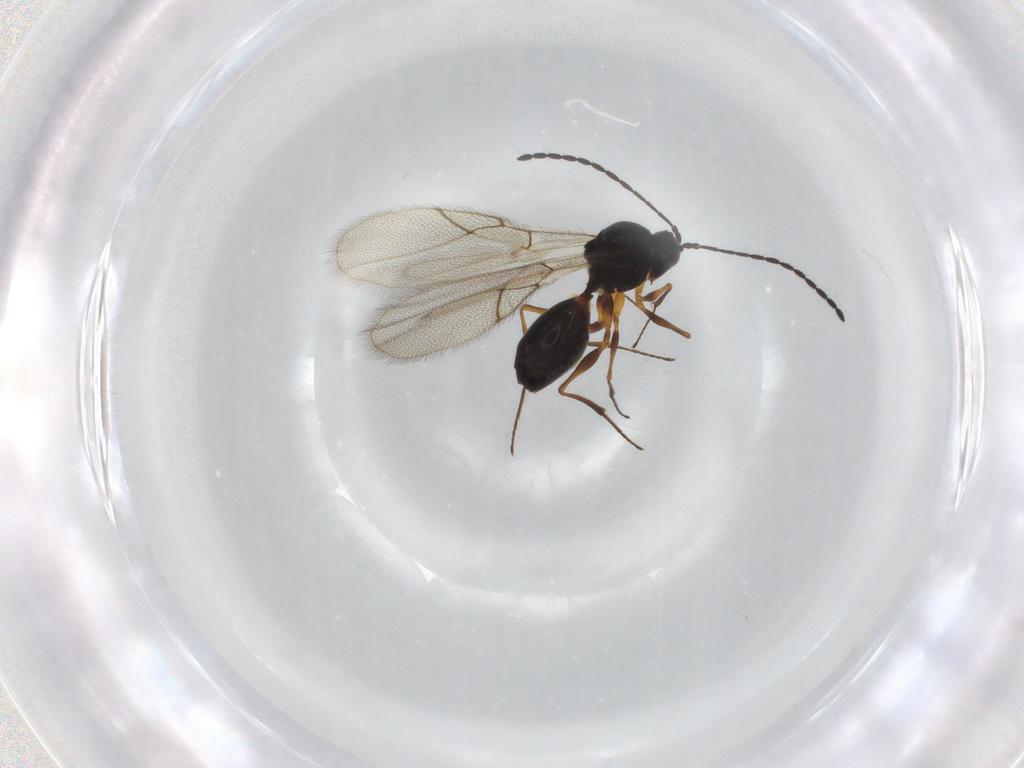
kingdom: Animalia
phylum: Arthropoda
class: Insecta
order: Hymenoptera
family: Figitidae
